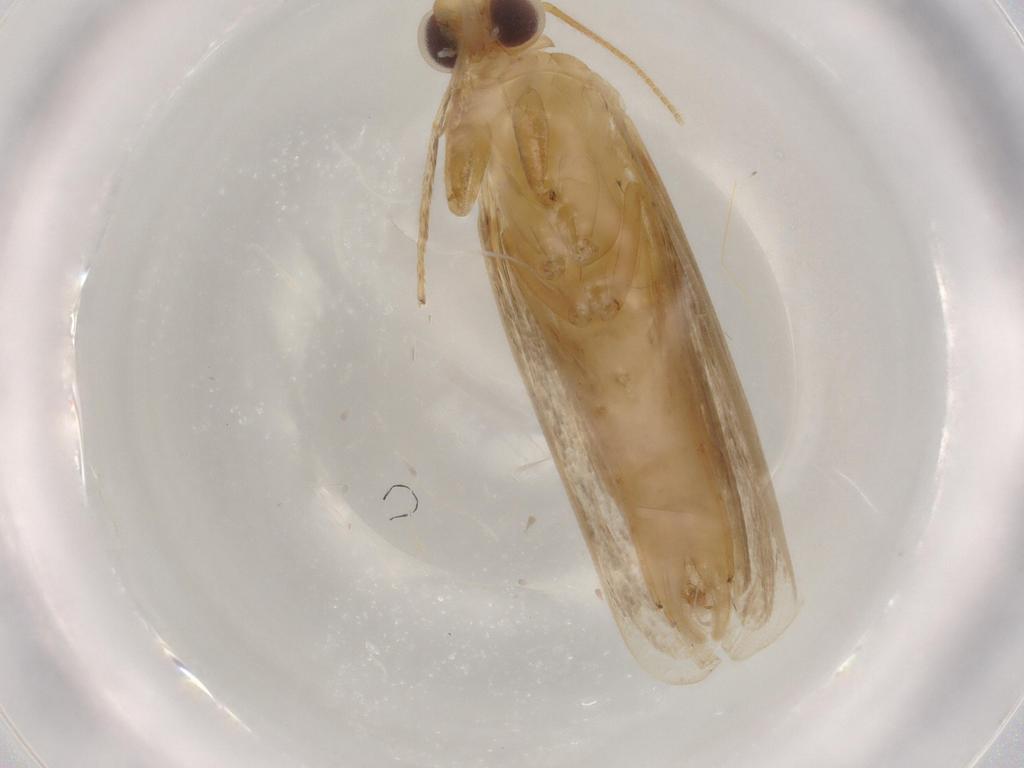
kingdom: Animalia
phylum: Arthropoda
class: Insecta
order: Lepidoptera
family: Pyralidae
